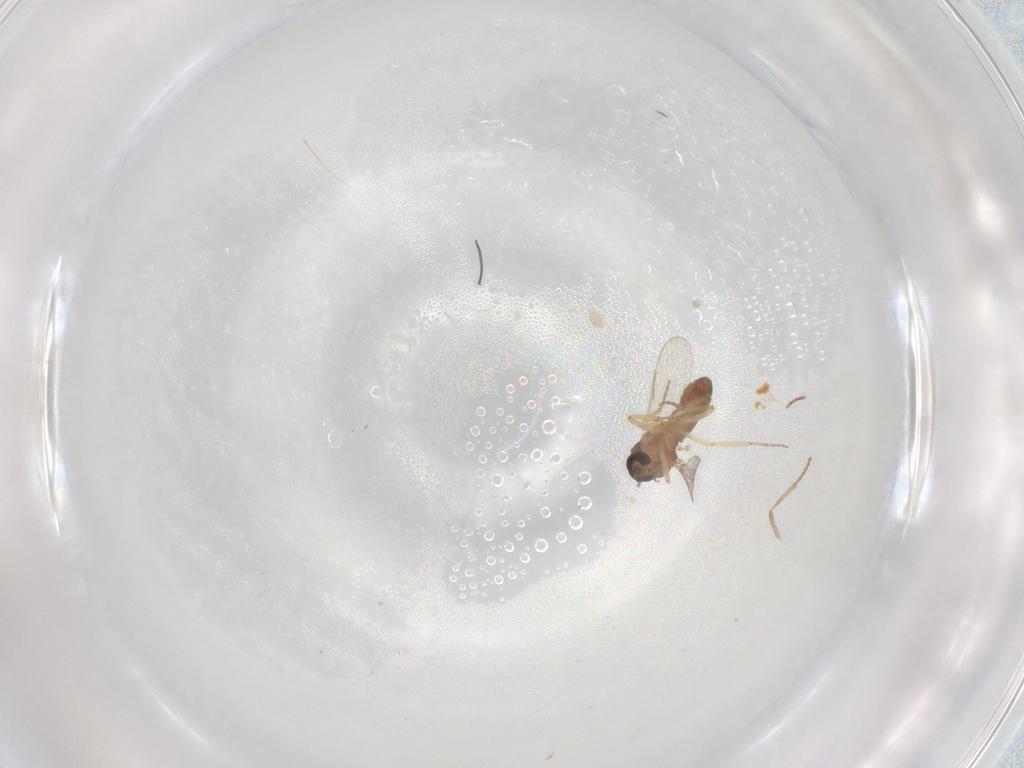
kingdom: Animalia
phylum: Arthropoda
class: Insecta
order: Diptera
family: Ceratopogonidae
